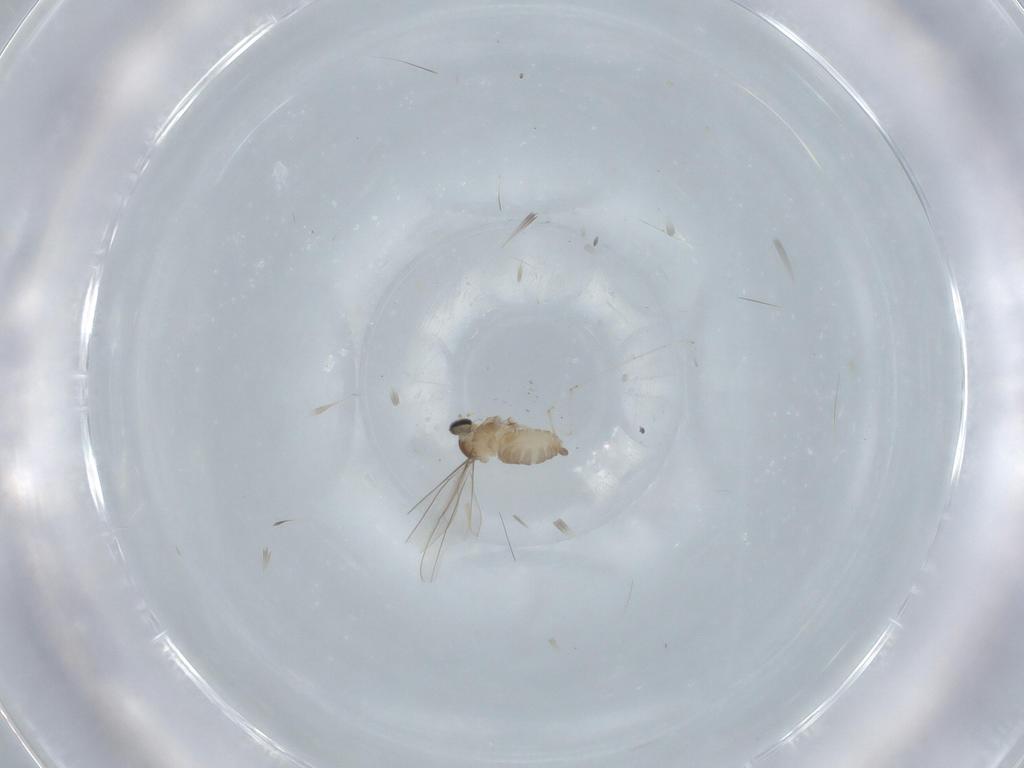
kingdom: Animalia
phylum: Arthropoda
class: Insecta
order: Diptera
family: Cecidomyiidae
